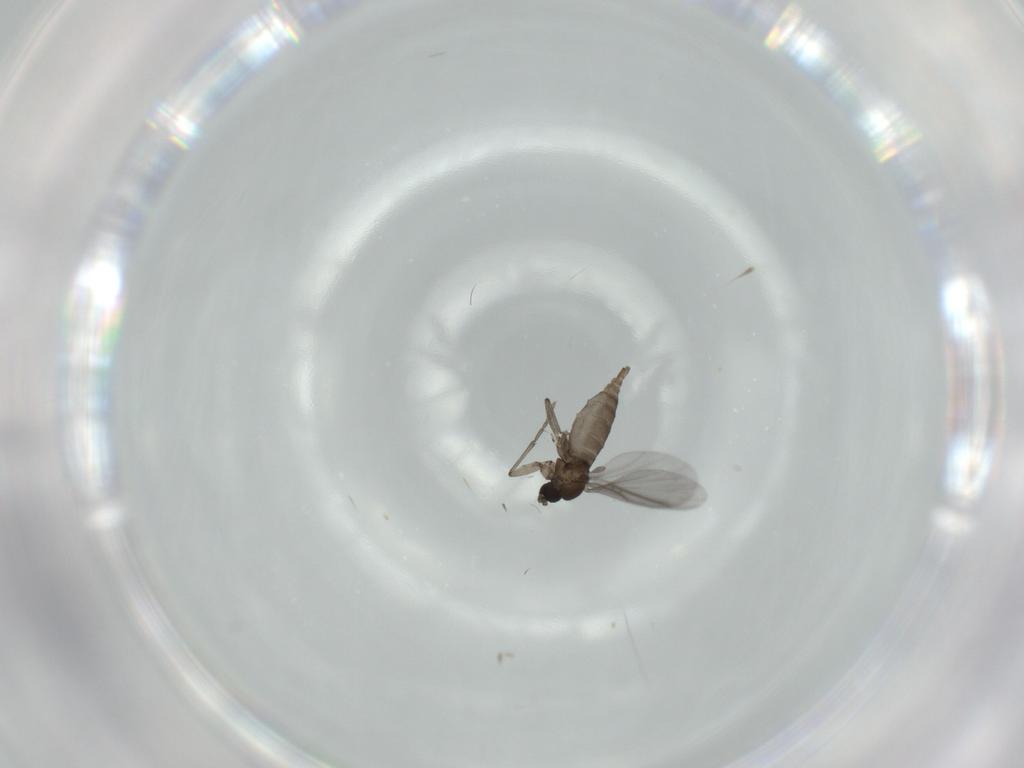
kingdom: Animalia
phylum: Arthropoda
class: Insecta
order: Diptera
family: Sciaridae
